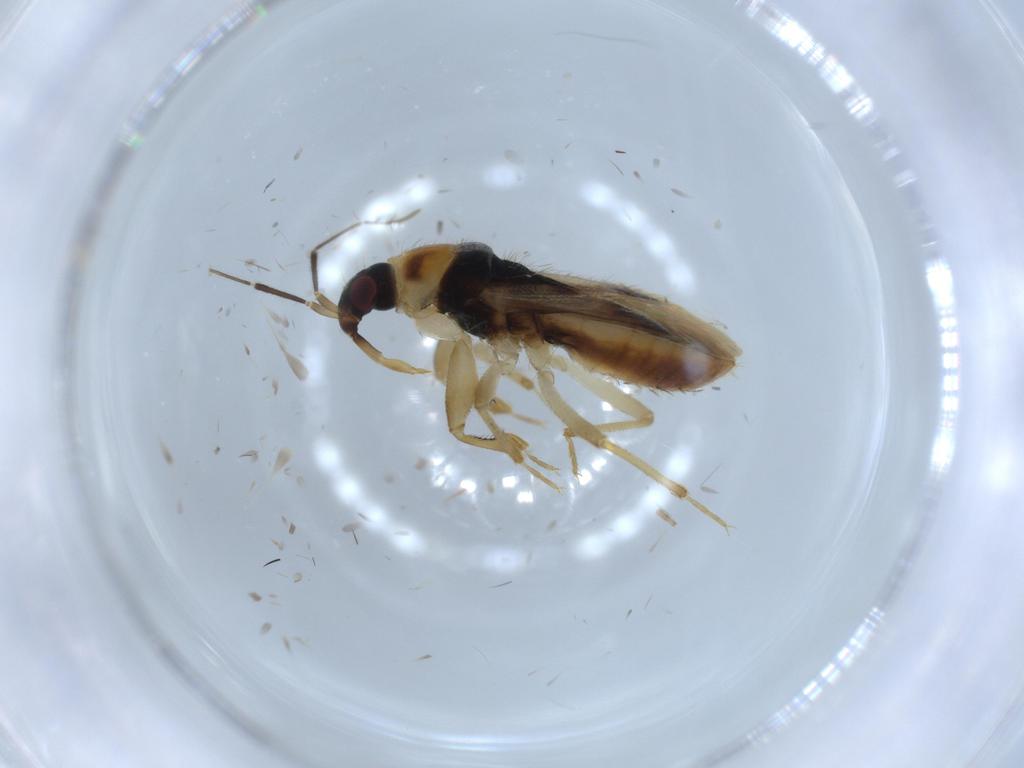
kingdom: Animalia
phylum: Arthropoda
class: Insecta
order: Hemiptera
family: Nabidae
